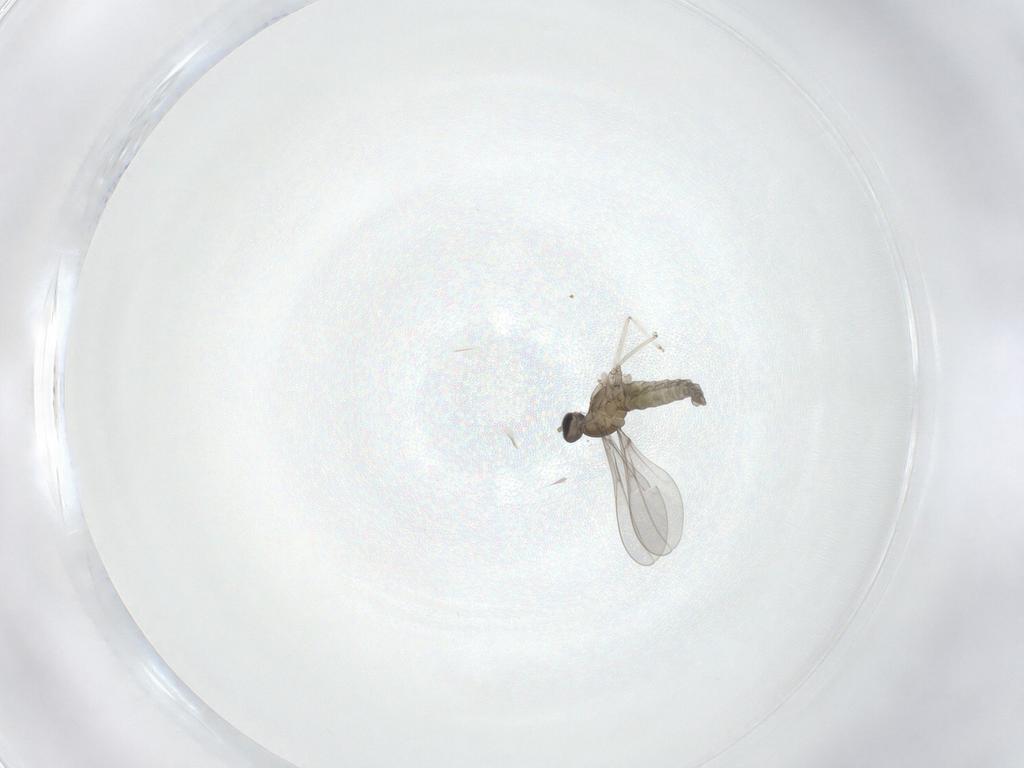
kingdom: Animalia
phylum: Arthropoda
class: Insecta
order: Diptera
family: Cecidomyiidae
